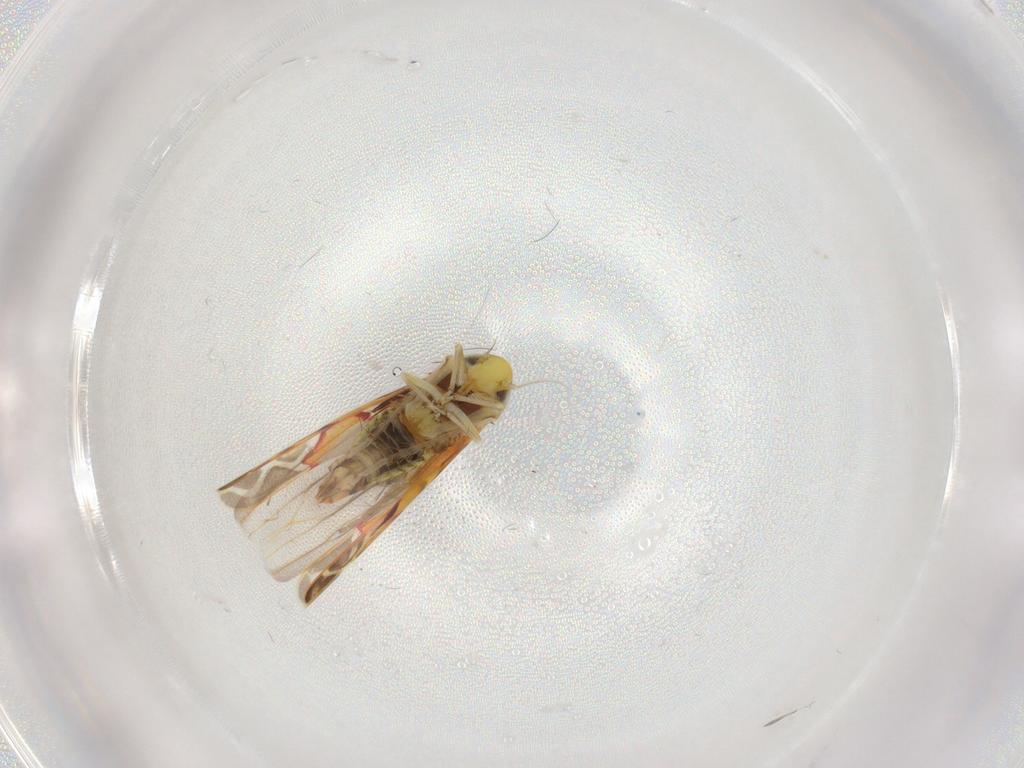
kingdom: Animalia
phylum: Arthropoda
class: Insecta
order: Hemiptera
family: Cicadellidae
